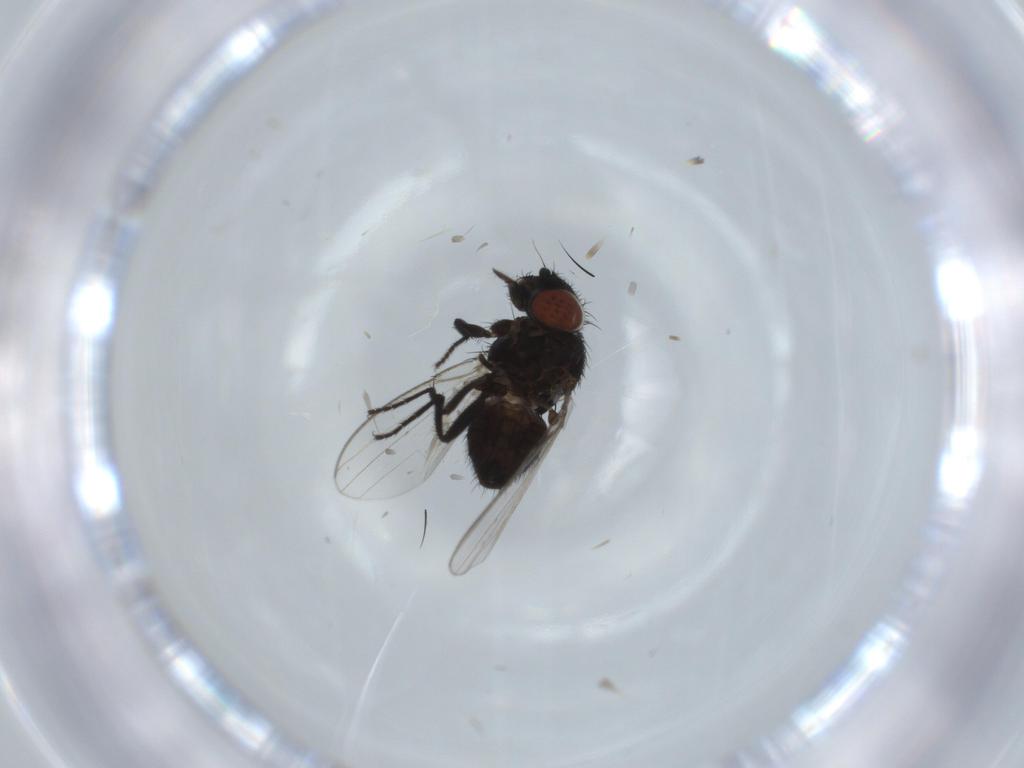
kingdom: Animalia
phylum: Arthropoda
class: Insecta
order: Diptera
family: Milichiidae
